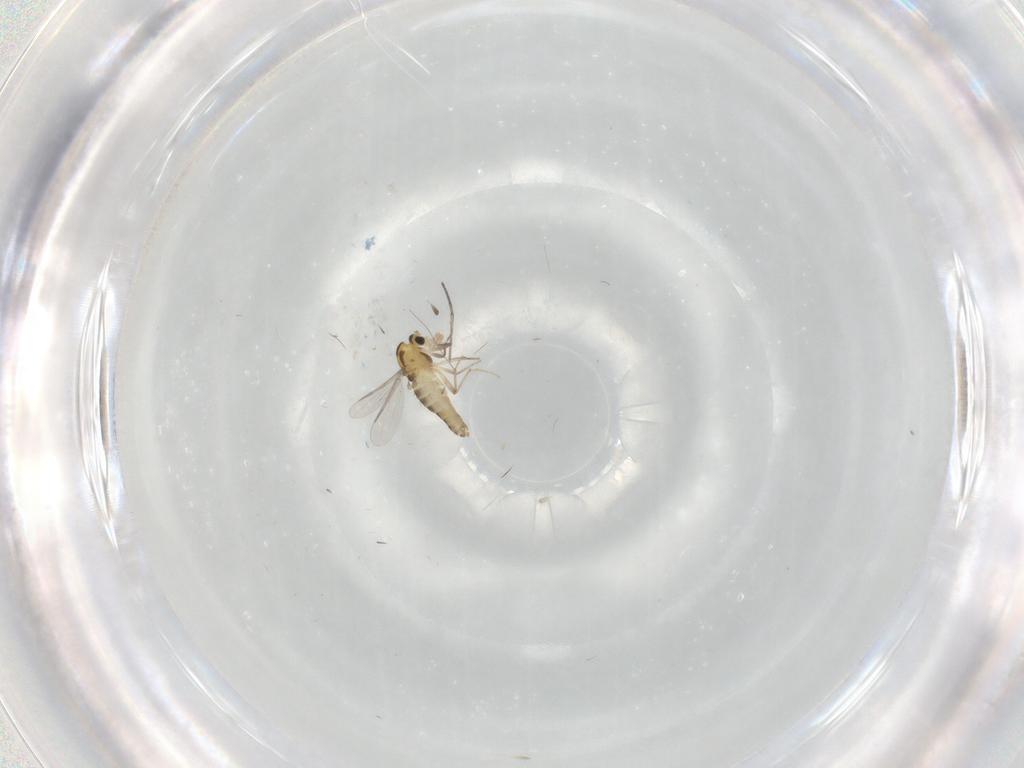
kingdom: Animalia
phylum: Arthropoda
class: Insecta
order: Diptera
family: Chironomidae
